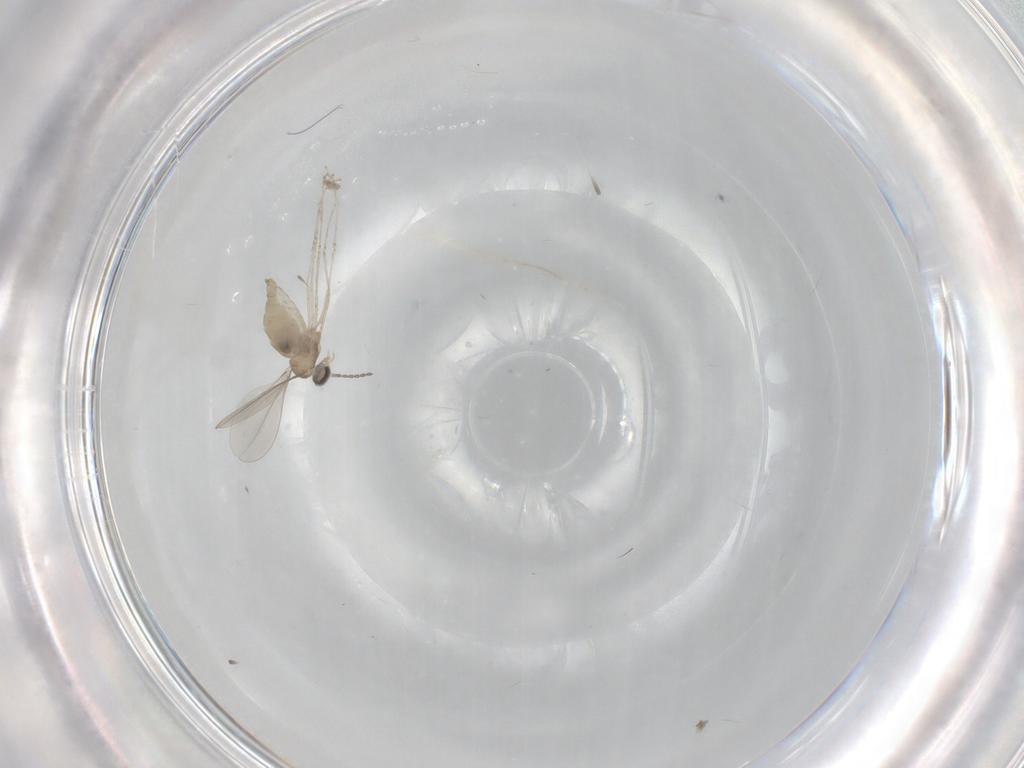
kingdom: Animalia
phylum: Arthropoda
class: Insecta
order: Diptera
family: Cecidomyiidae
